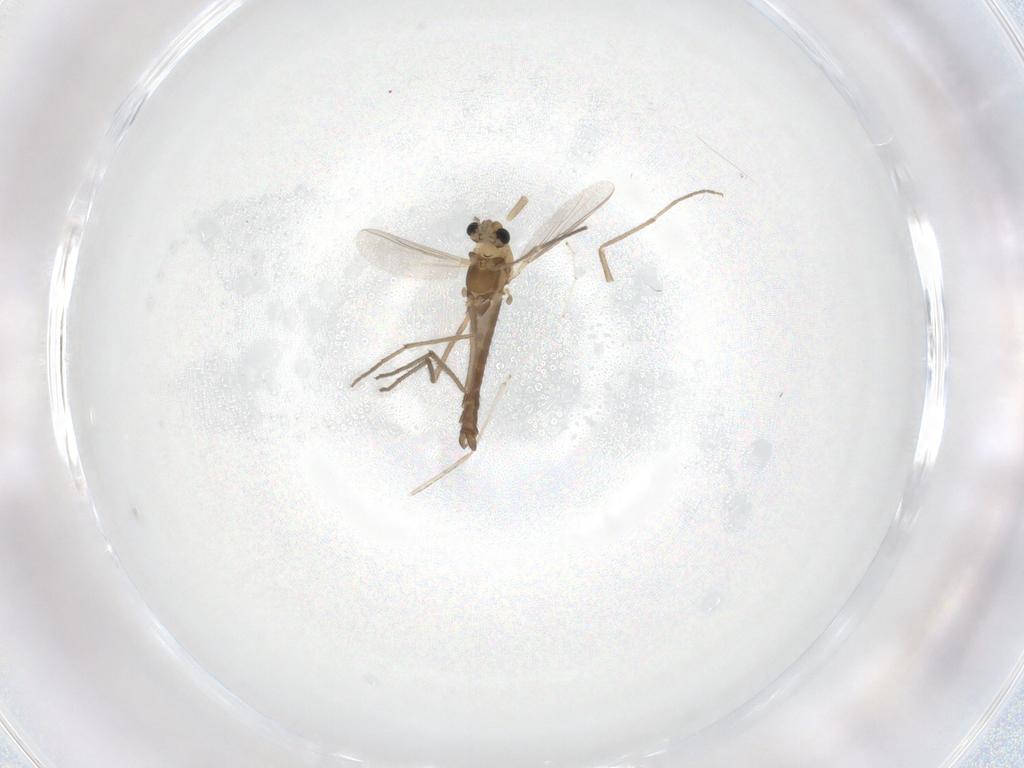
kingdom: Animalia
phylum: Arthropoda
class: Insecta
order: Diptera
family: Chironomidae
